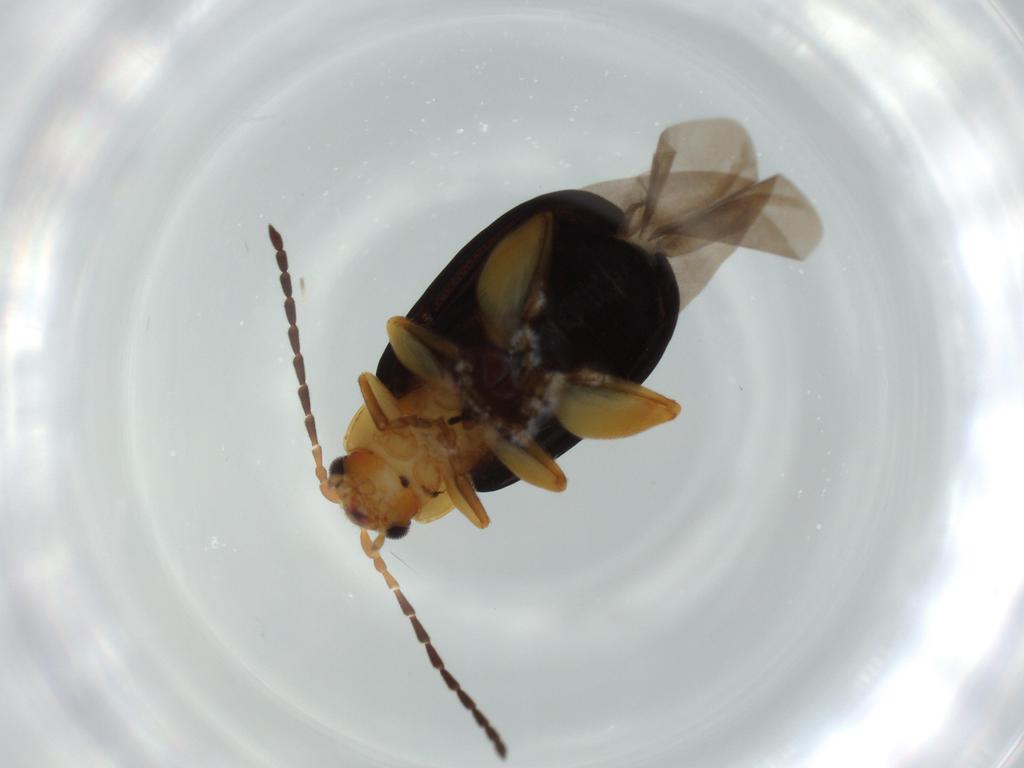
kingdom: Animalia
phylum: Arthropoda
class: Insecta
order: Coleoptera
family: Chrysomelidae
